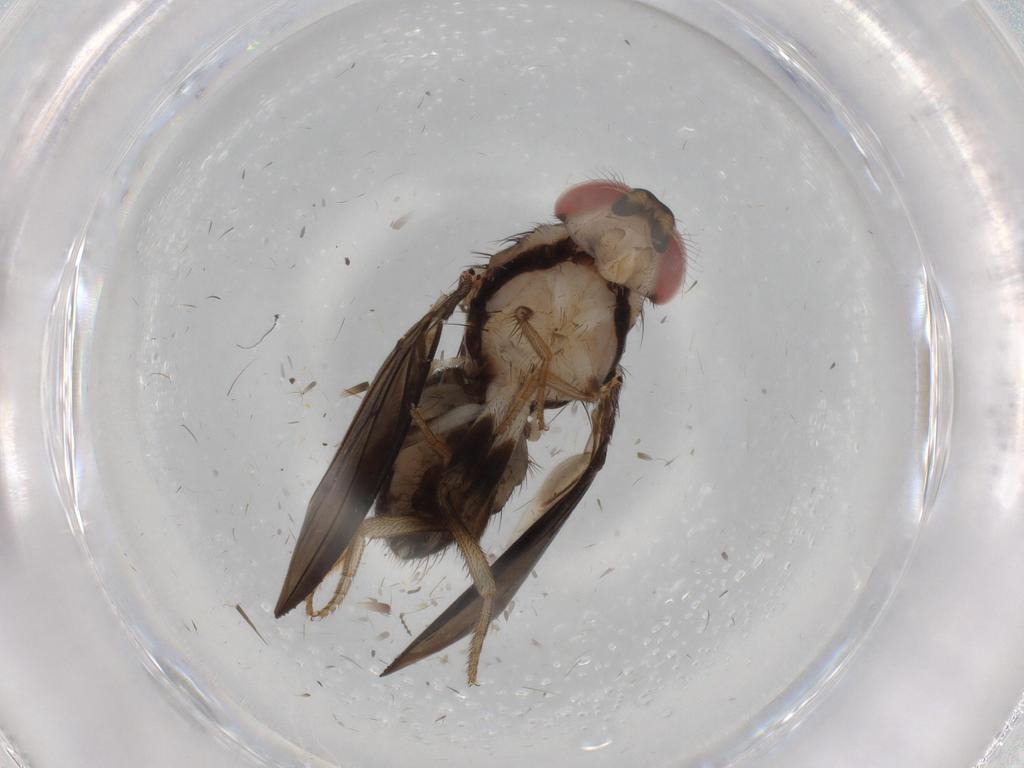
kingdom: Animalia
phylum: Arthropoda
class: Insecta
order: Diptera
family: Drosophilidae
